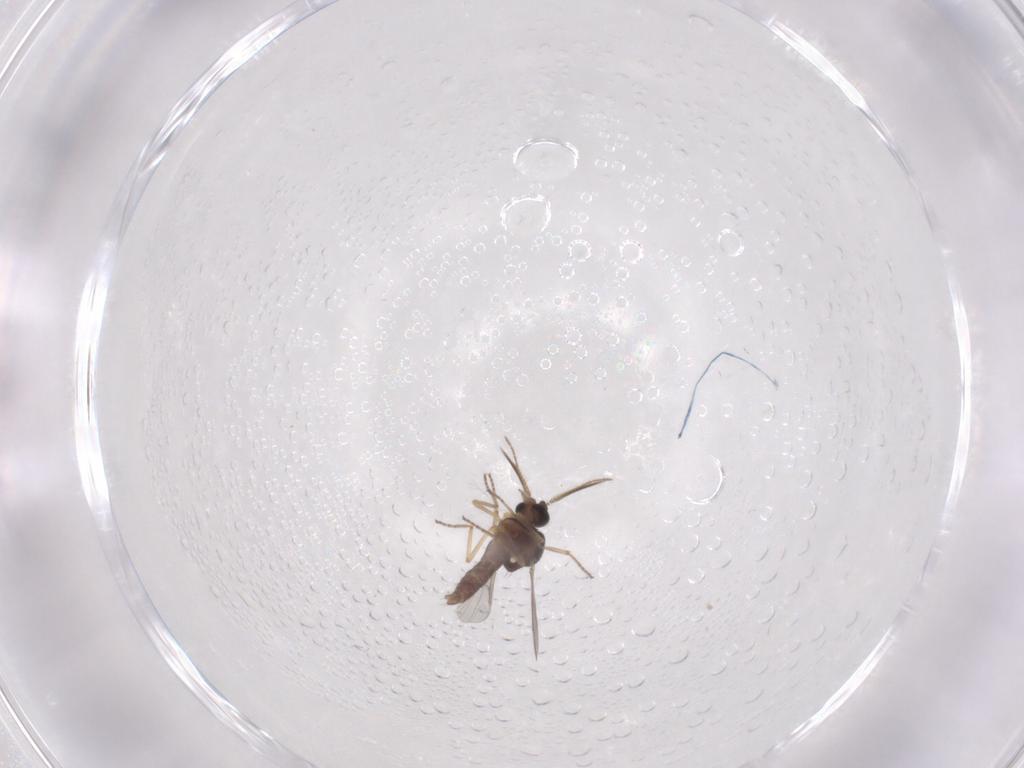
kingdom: Animalia
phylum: Arthropoda
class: Insecta
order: Diptera
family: Ceratopogonidae
